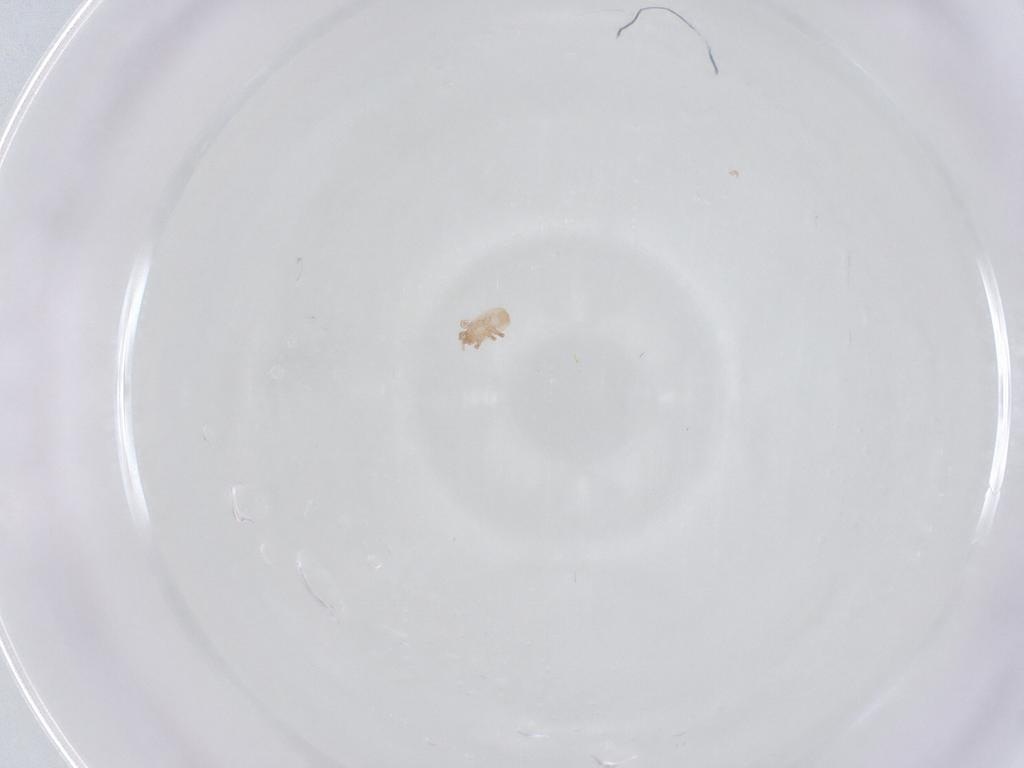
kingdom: Animalia
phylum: Arthropoda
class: Arachnida
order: Mesostigmata
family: Digamasellidae
